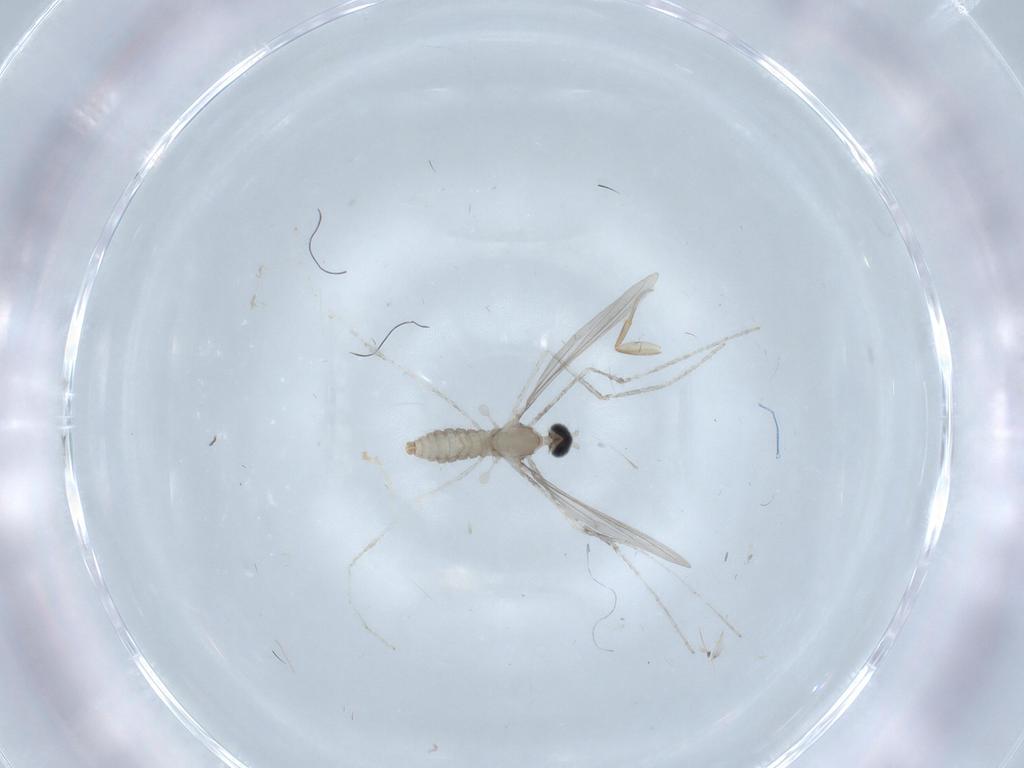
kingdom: Animalia
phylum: Arthropoda
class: Insecta
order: Diptera
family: Phoridae
